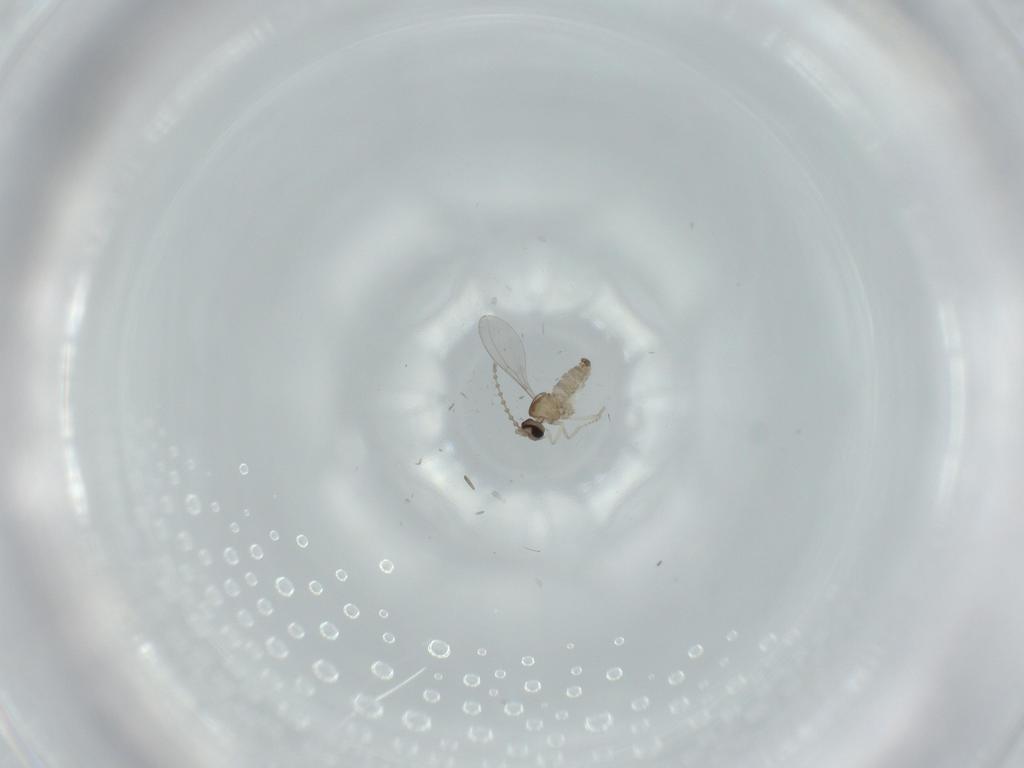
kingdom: Animalia
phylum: Arthropoda
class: Insecta
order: Diptera
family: Cecidomyiidae
